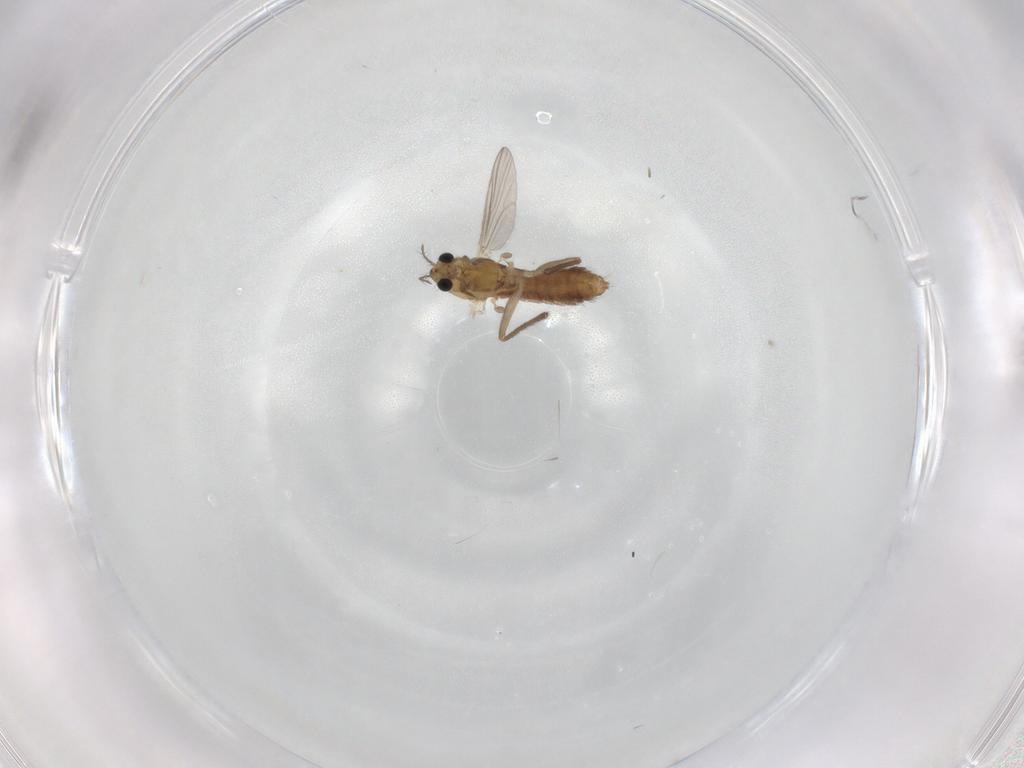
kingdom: Animalia
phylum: Arthropoda
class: Insecta
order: Diptera
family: Chironomidae
